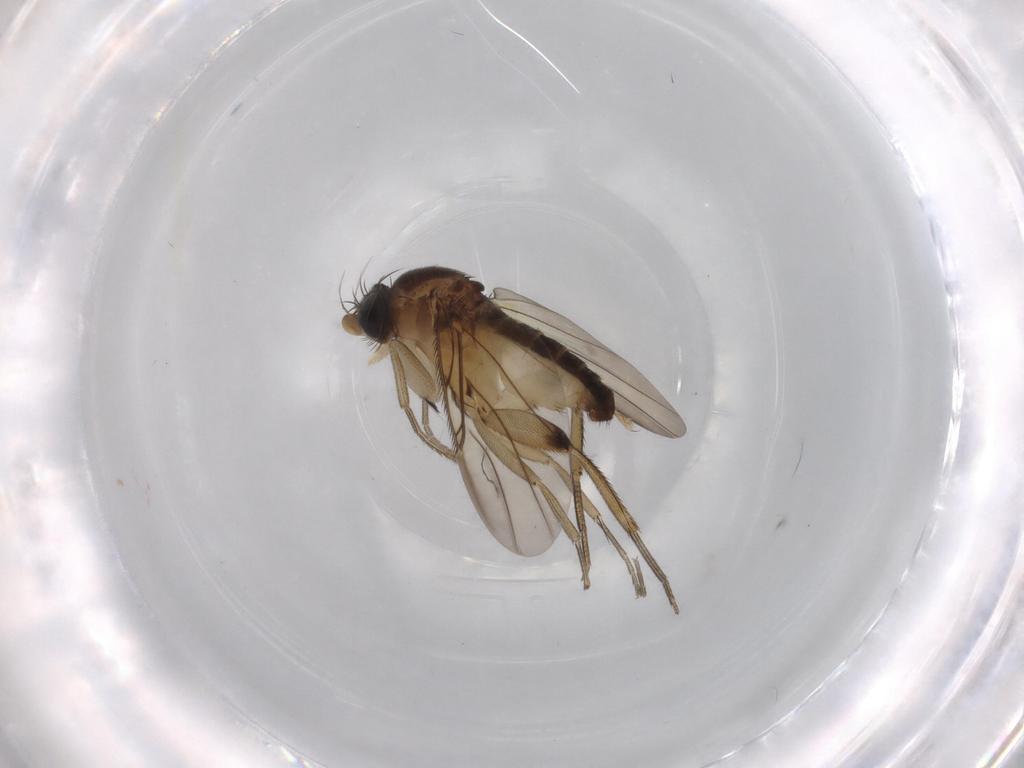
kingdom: Animalia
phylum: Arthropoda
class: Insecta
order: Diptera
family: Phoridae
